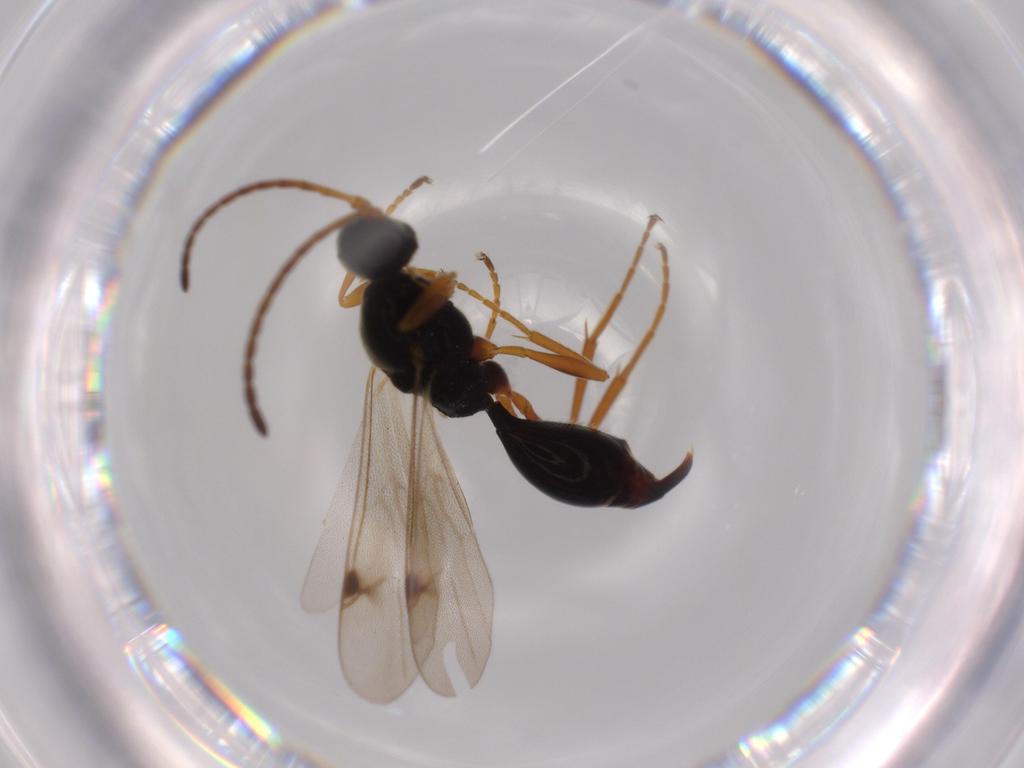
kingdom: Animalia
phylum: Arthropoda
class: Insecta
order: Hymenoptera
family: Proctotrupidae
